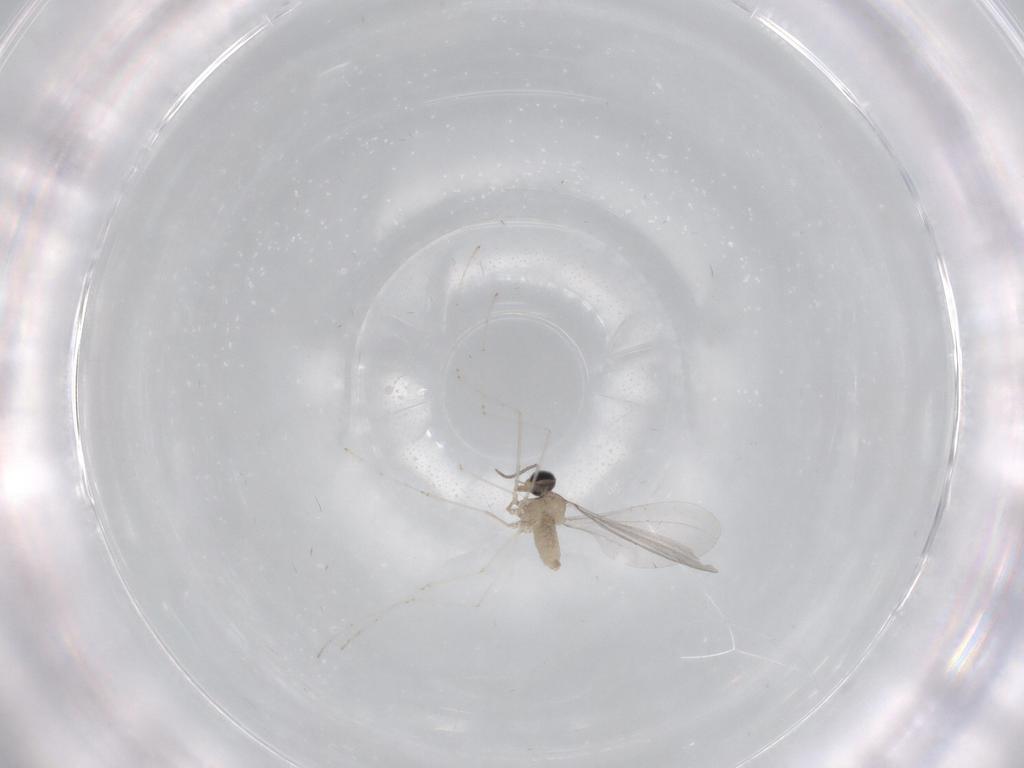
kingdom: Animalia
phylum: Arthropoda
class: Insecta
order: Diptera
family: Cecidomyiidae
